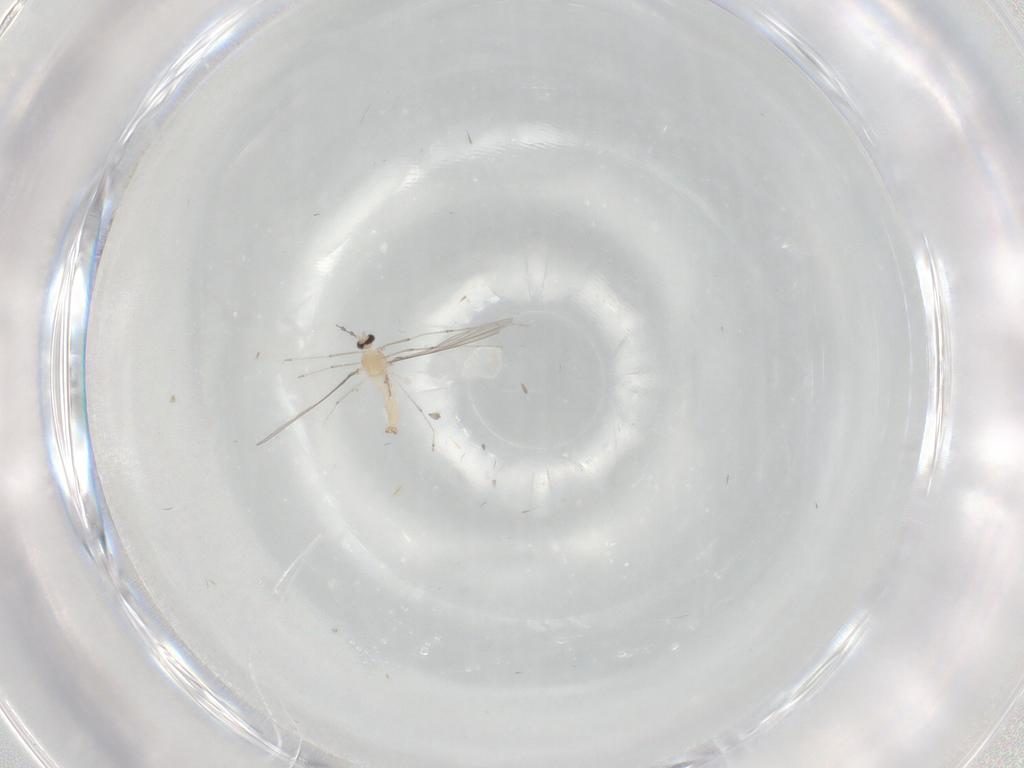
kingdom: Animalia
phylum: Arthropoda
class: Insecta
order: Diptera
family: Cecidomyiidae
